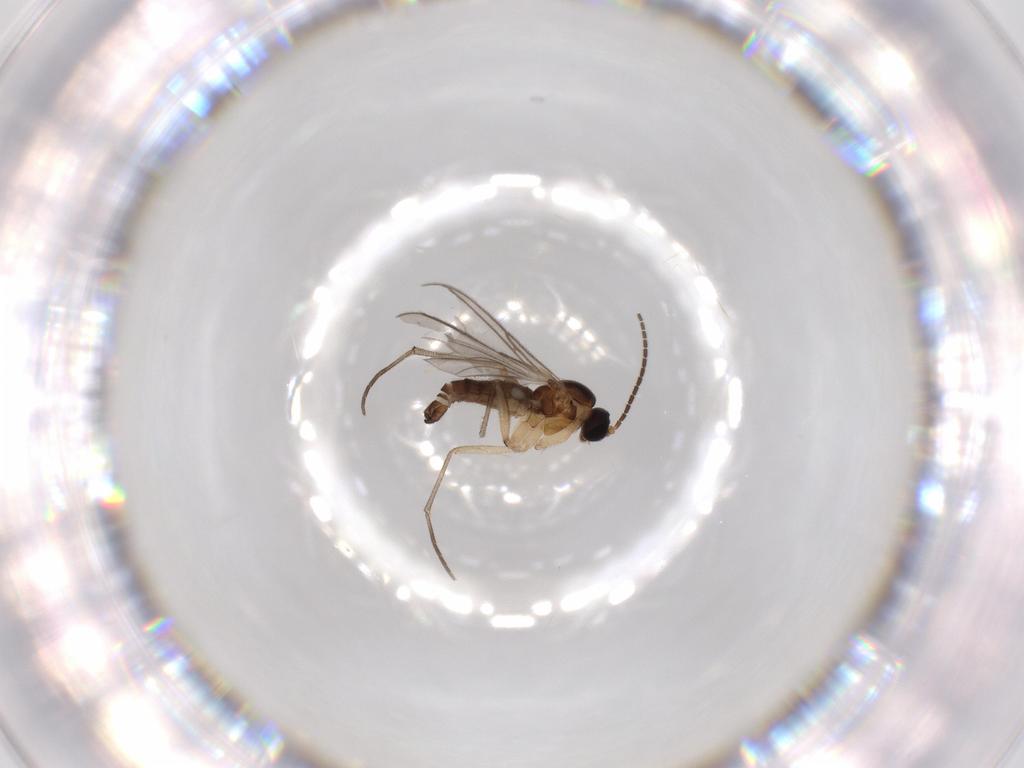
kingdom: Animalia
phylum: Arthropoda
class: Insecta
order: Diptera
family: Sciaridae
